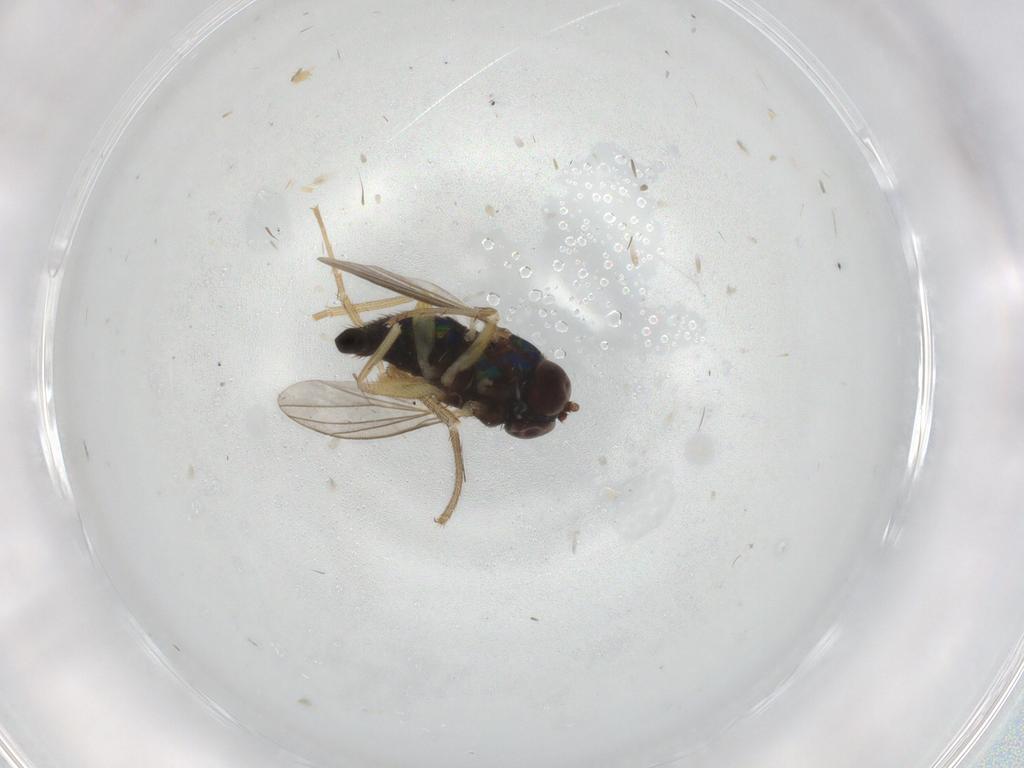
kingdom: Animalia
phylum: Arthropoda
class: Insecta
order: Diptera
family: Dolichopodidae
